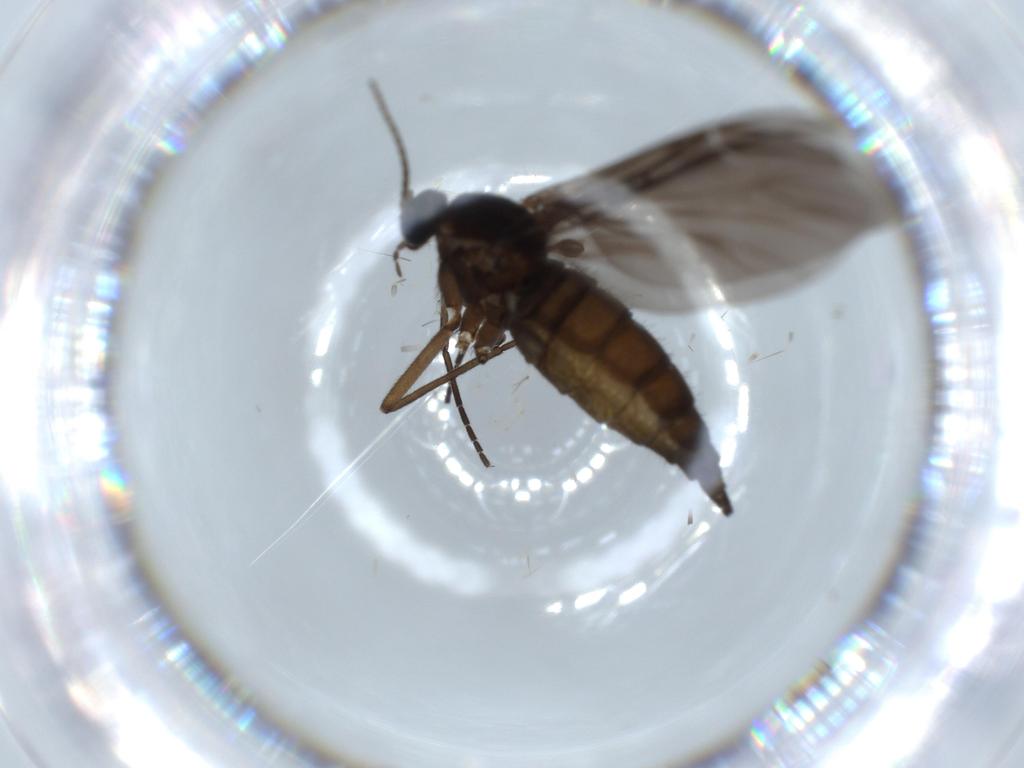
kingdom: Animalia
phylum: Arthropoda
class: Insecta
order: Diptera
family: Sciaridae
